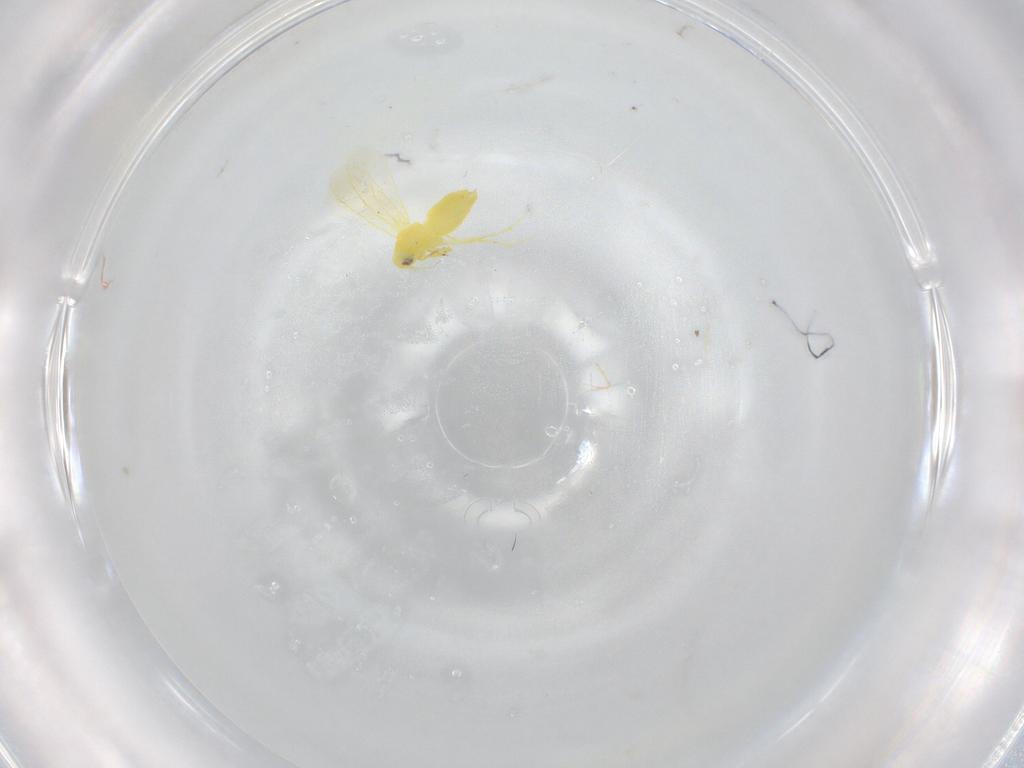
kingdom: Animalia
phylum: Arthropoda
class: Insecta
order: Hemiptera
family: Aleyrodidae
